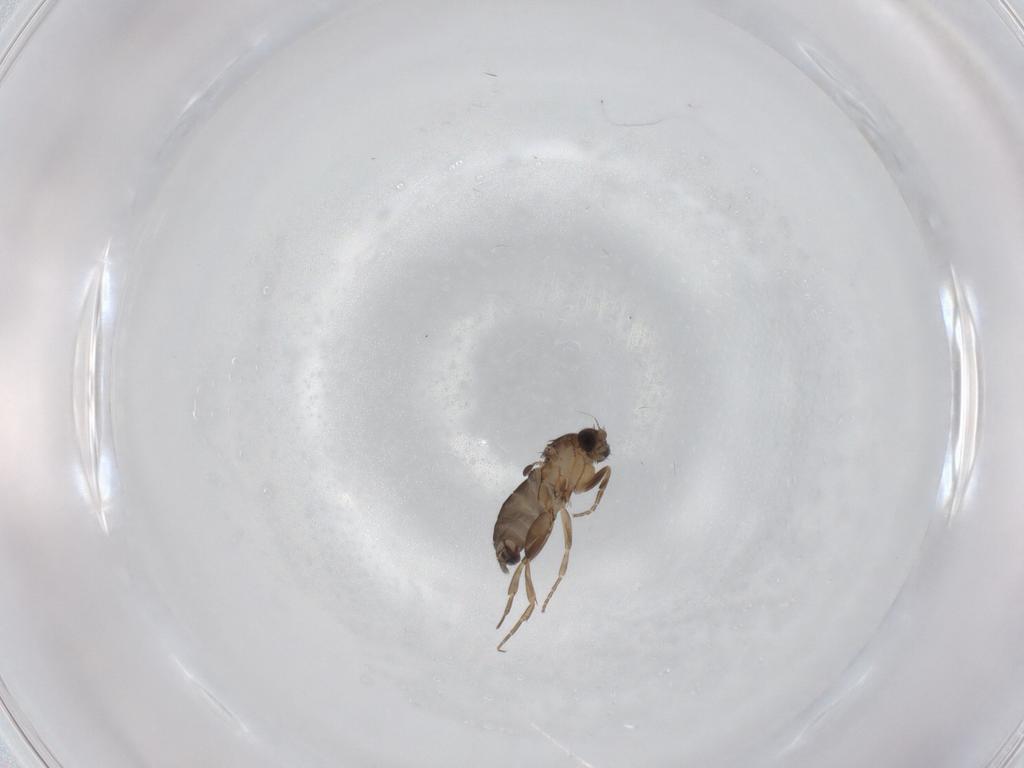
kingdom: Animalia
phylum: Arthropoda
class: Insecta
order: Diptera
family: Phoridae
